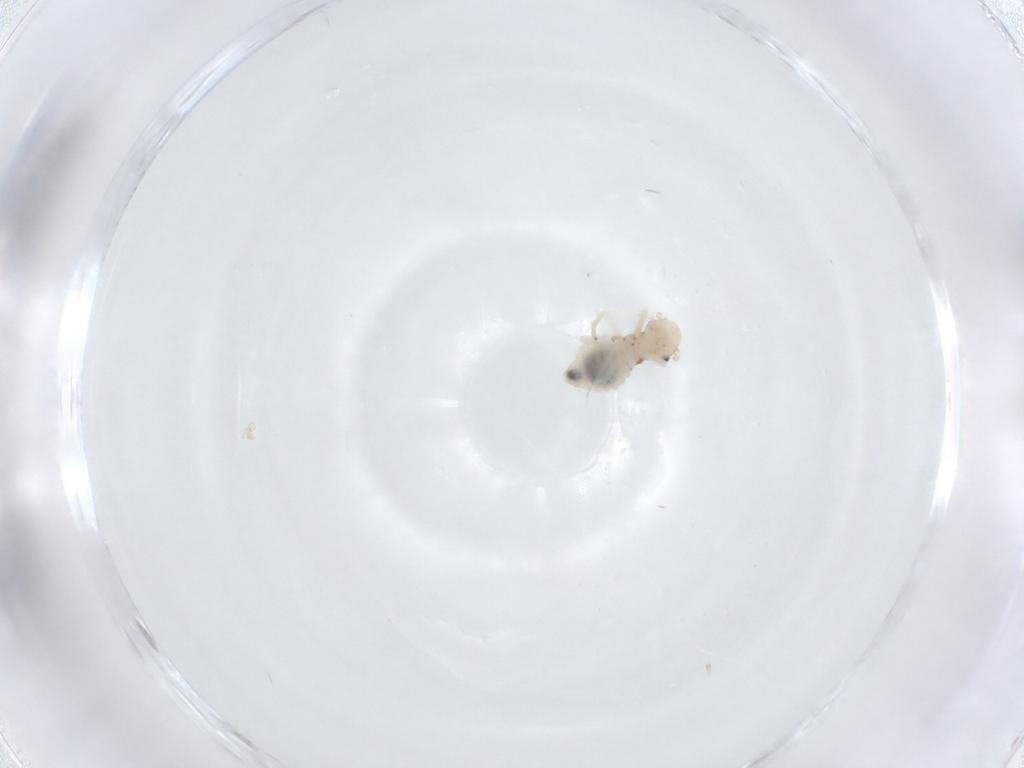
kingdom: Animalia
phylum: Arthropoda
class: Insecta
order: Psocodea
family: Amphipsocidae
